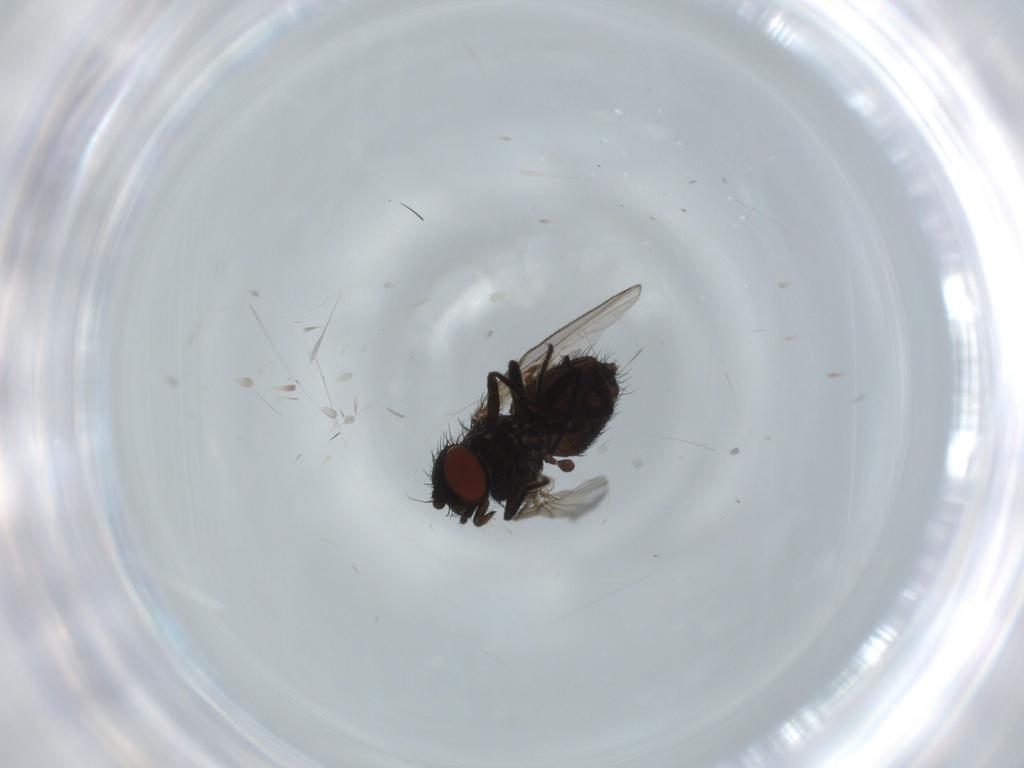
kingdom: Animalia
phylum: Arthropoda
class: Insecta
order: Diptera
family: Milichiidae
